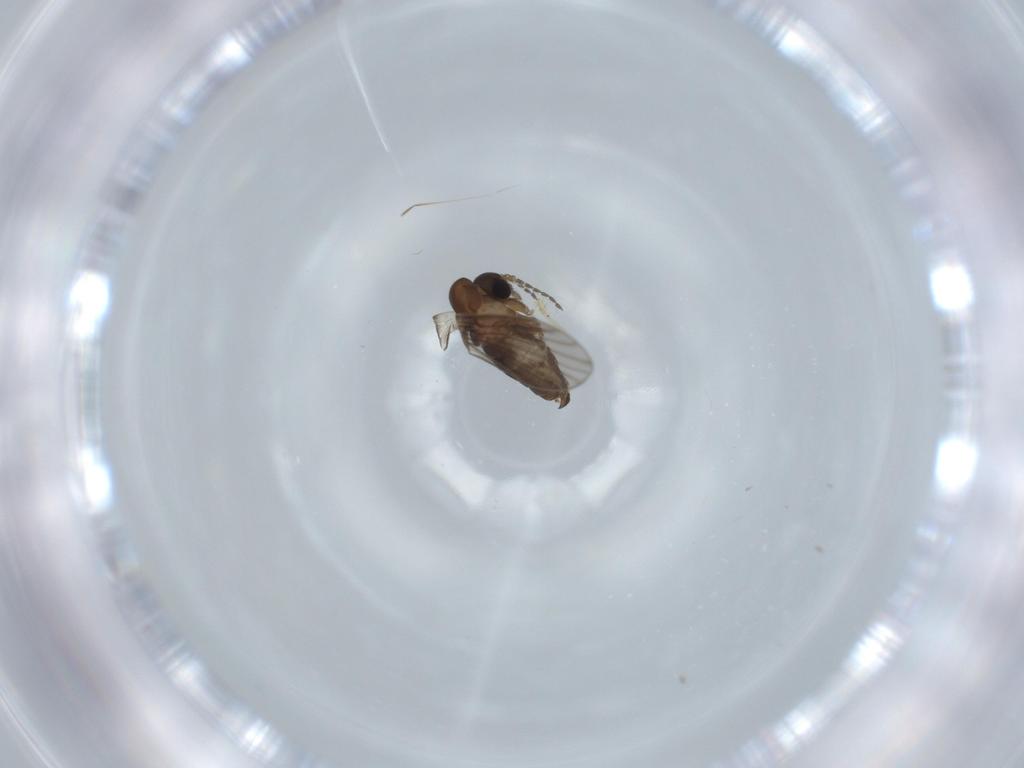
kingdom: Animalia
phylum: Arthropoda
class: Insecta
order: Diptera
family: Psychodidae
